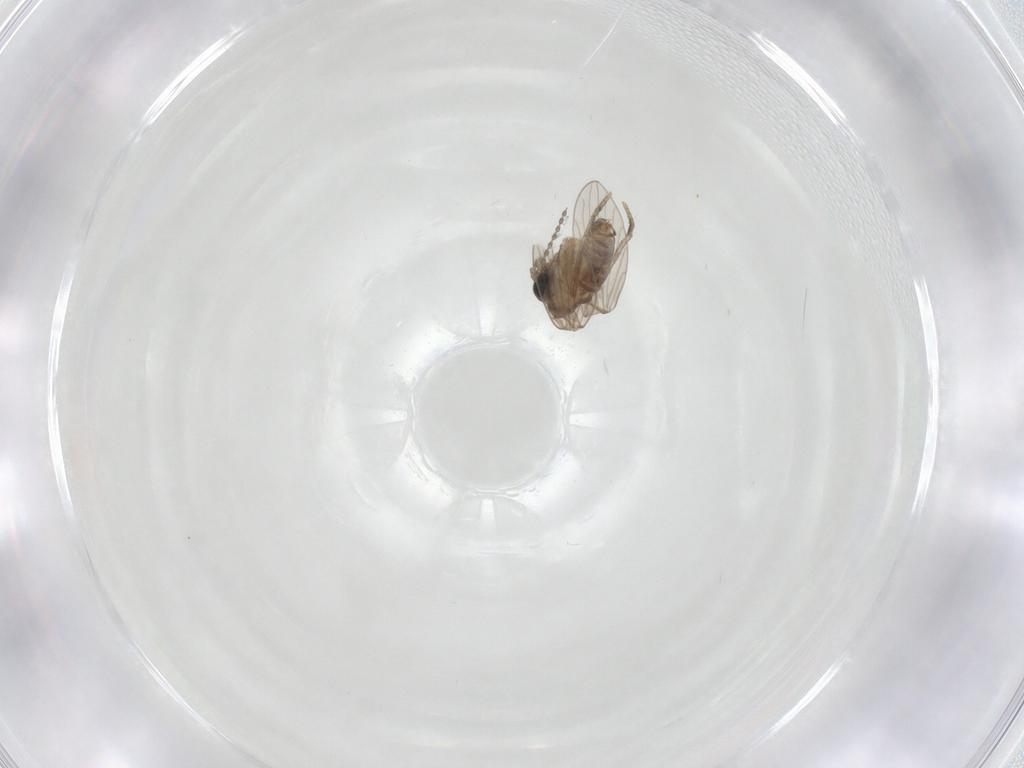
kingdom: Animalia
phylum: Arthropoda
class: Insecta
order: Diptera
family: Psychodidae
